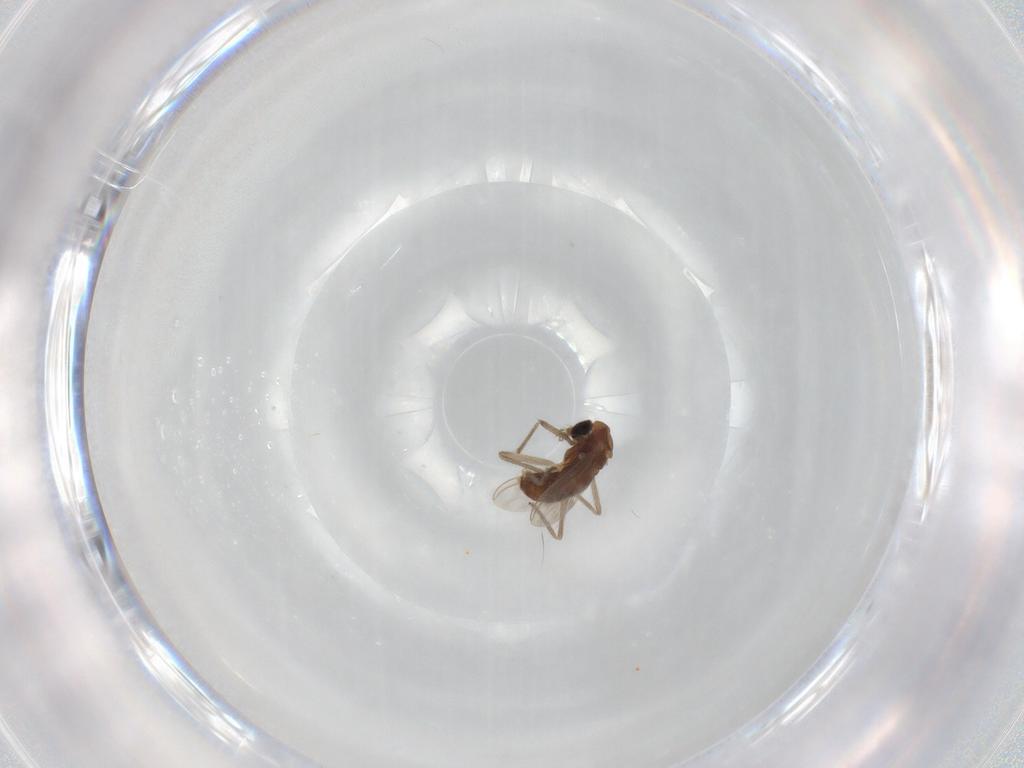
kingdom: Animalia
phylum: Arthropoda
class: Insecta
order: Diptera
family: Chironomidae
